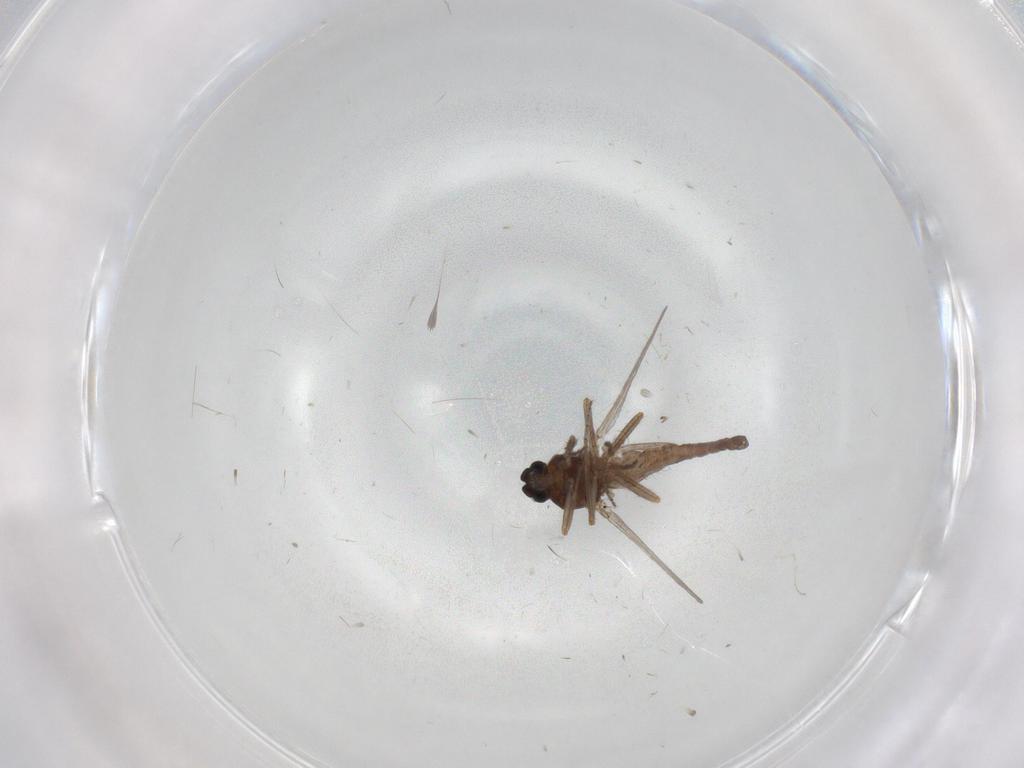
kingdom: Animalia
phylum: Arthropoda
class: Insecta
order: Diptera
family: Ceratopogonidae
